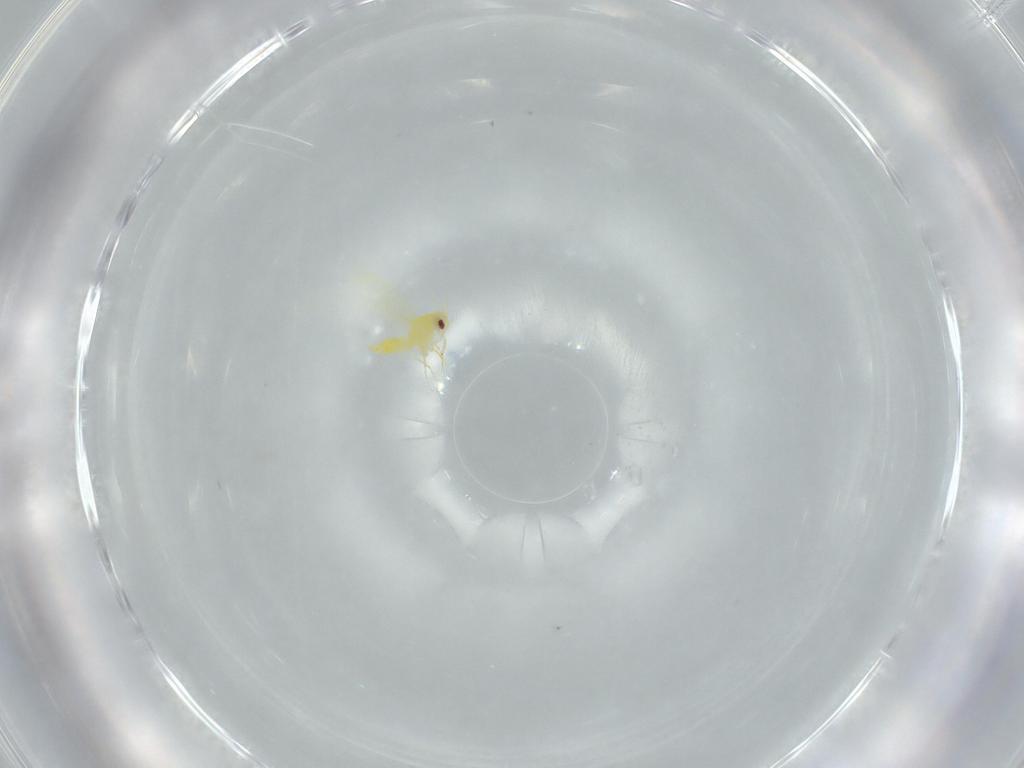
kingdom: Animalia
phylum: Arthropoda
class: Insecta
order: Hemiptera
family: Aleyrodidae
